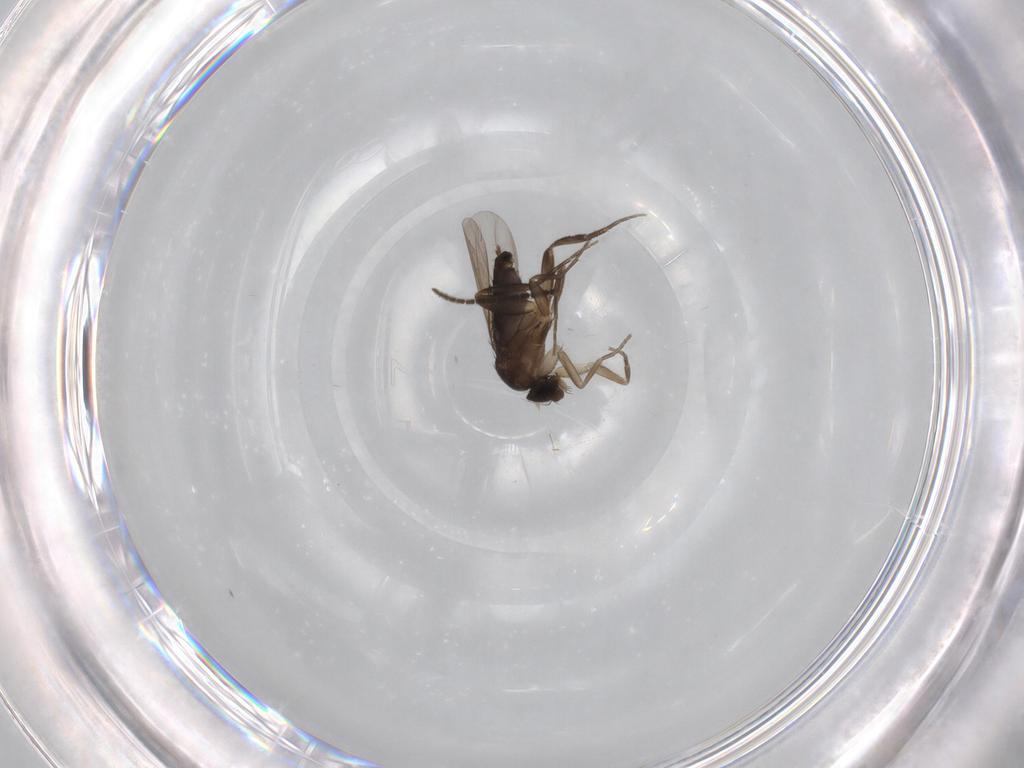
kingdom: Animalia
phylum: Arthropoda
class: Insecta
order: Diptera
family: Phoridae
